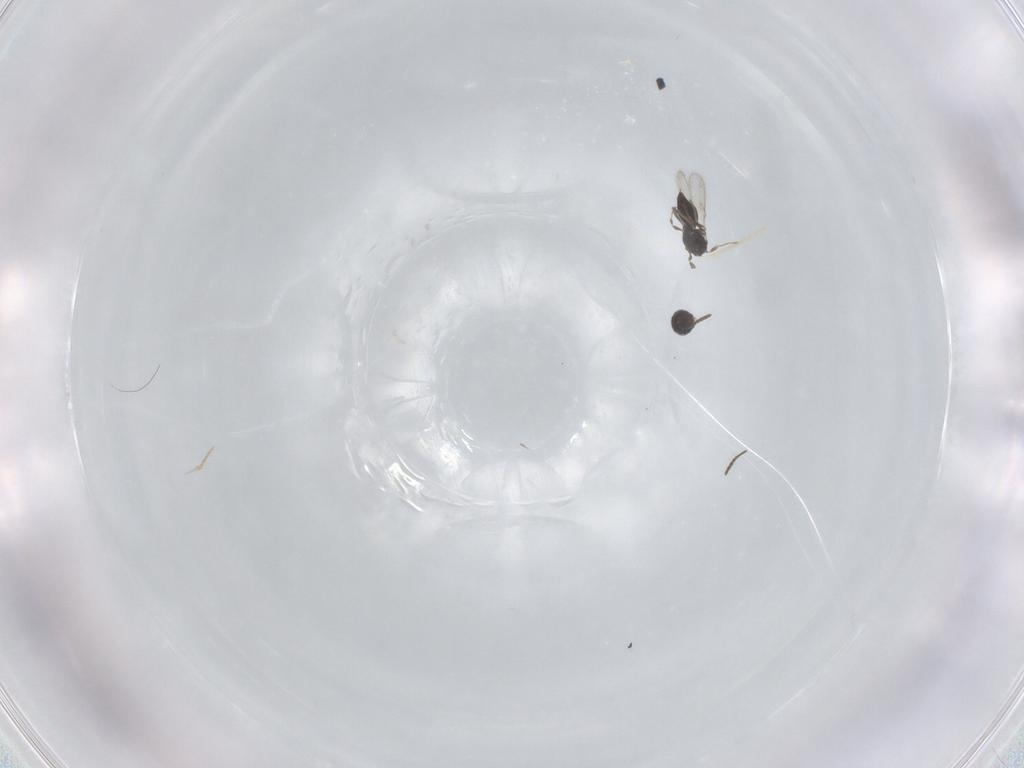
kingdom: Animalia
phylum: Arthropoda
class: Insecta
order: Hymenoptera
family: Scelionidae
